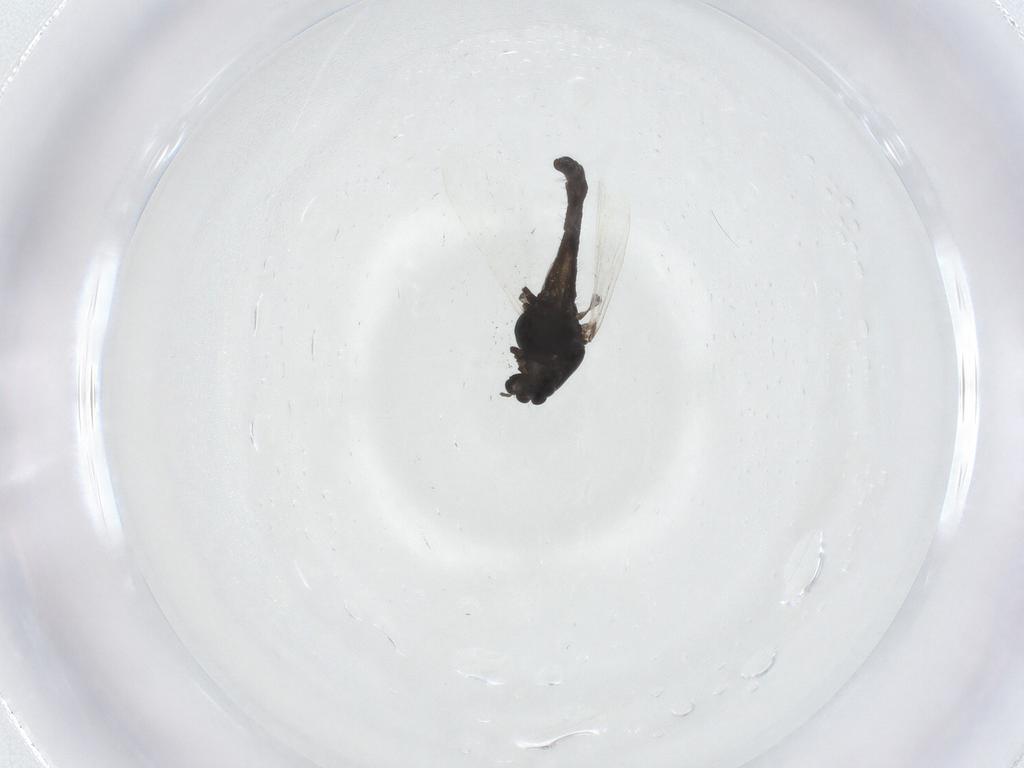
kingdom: Animalia
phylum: Arthropoda
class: Insecta
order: Diptera
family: Chironomidae
